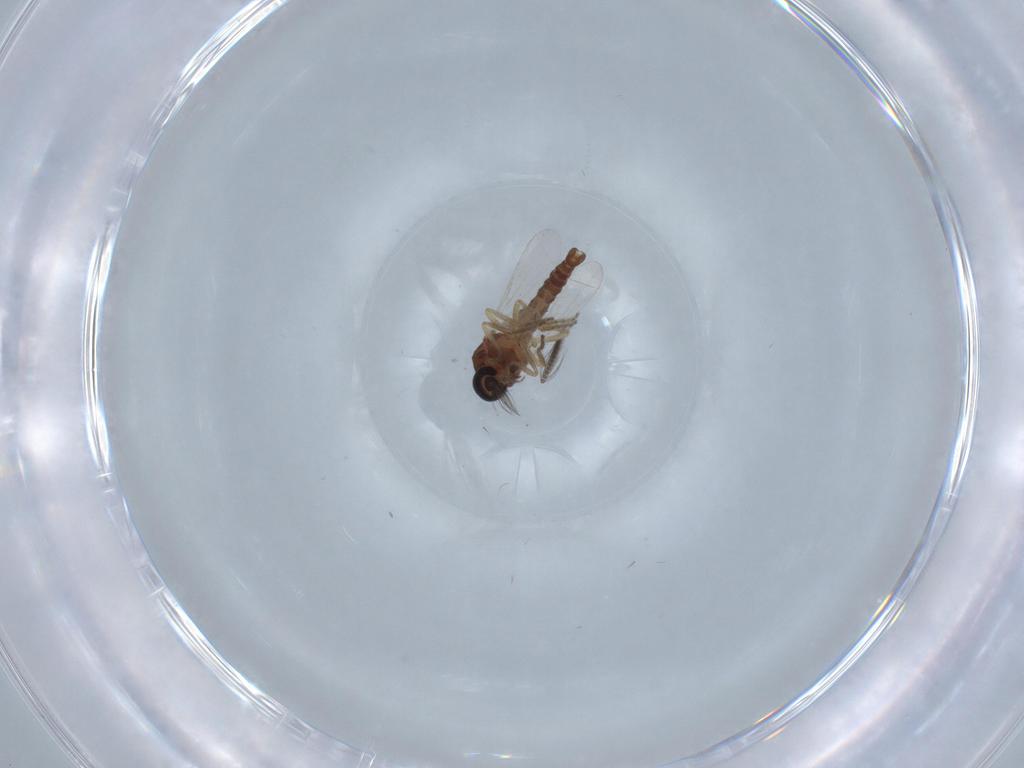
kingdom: Animalia
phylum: Arthropoda
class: Insecta
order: Diptera
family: Ceratopogonidae
